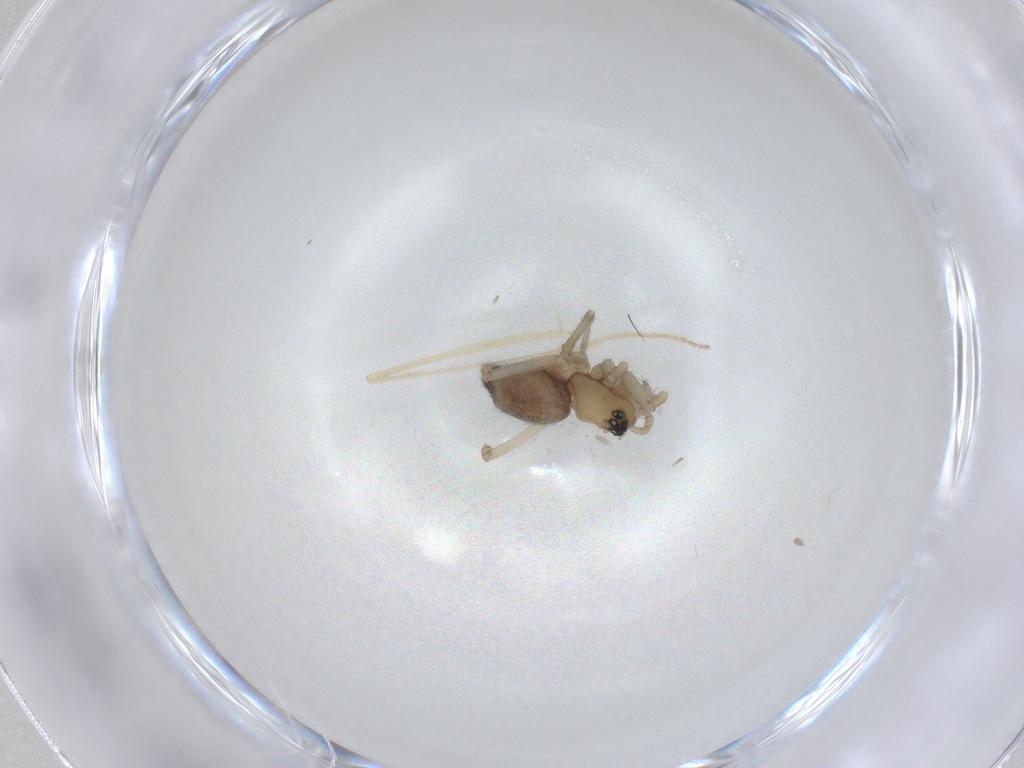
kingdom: Animalia
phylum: Arthropoda
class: Arachnida
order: Araneae
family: Linyphiidae
